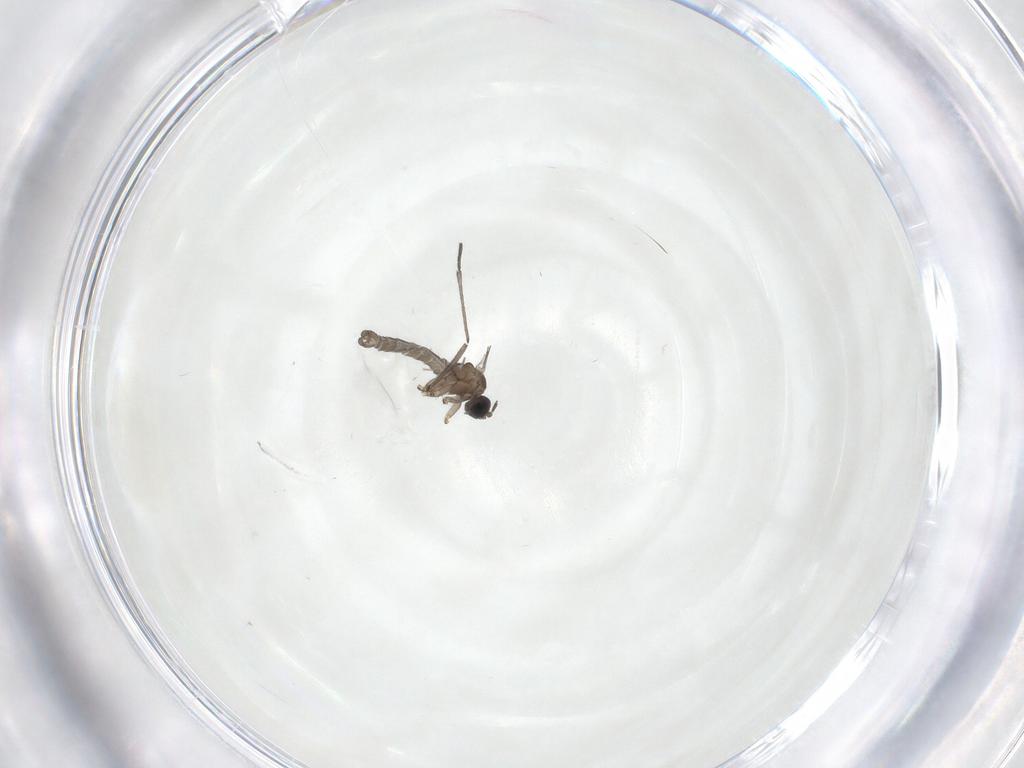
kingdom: Animalia
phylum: Arthropoda
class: Insecta
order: Diptera
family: Sciaridae
